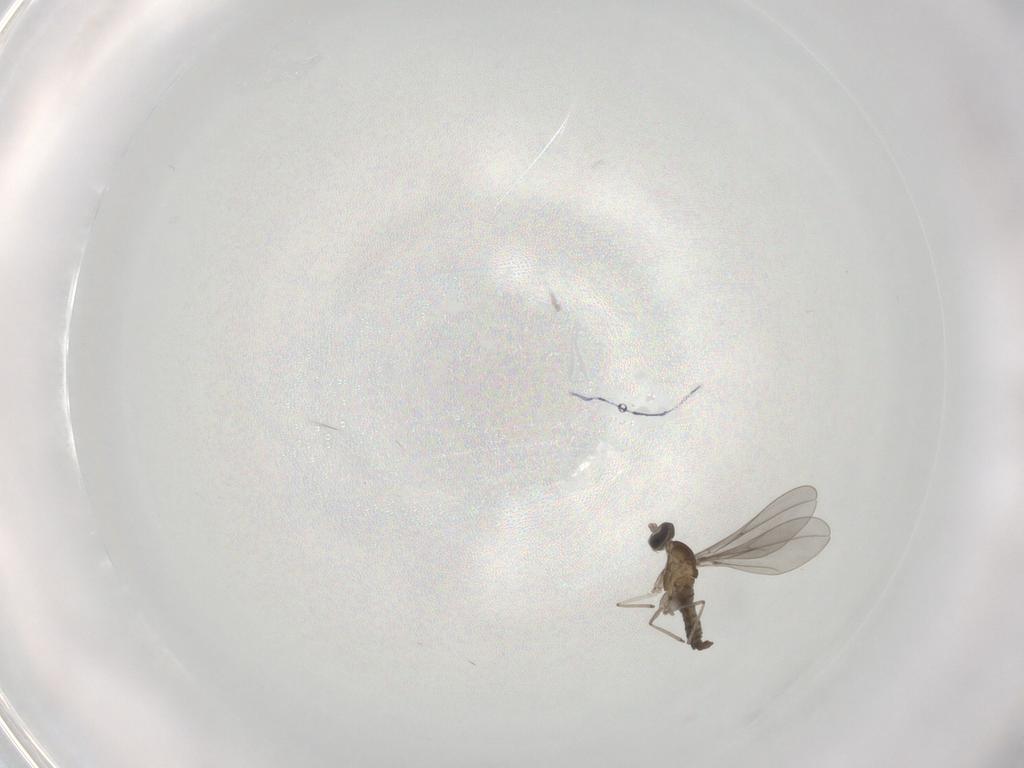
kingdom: Animalia
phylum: Arthropoda
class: Insecta
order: Diptera
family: Cecidomyiidae
